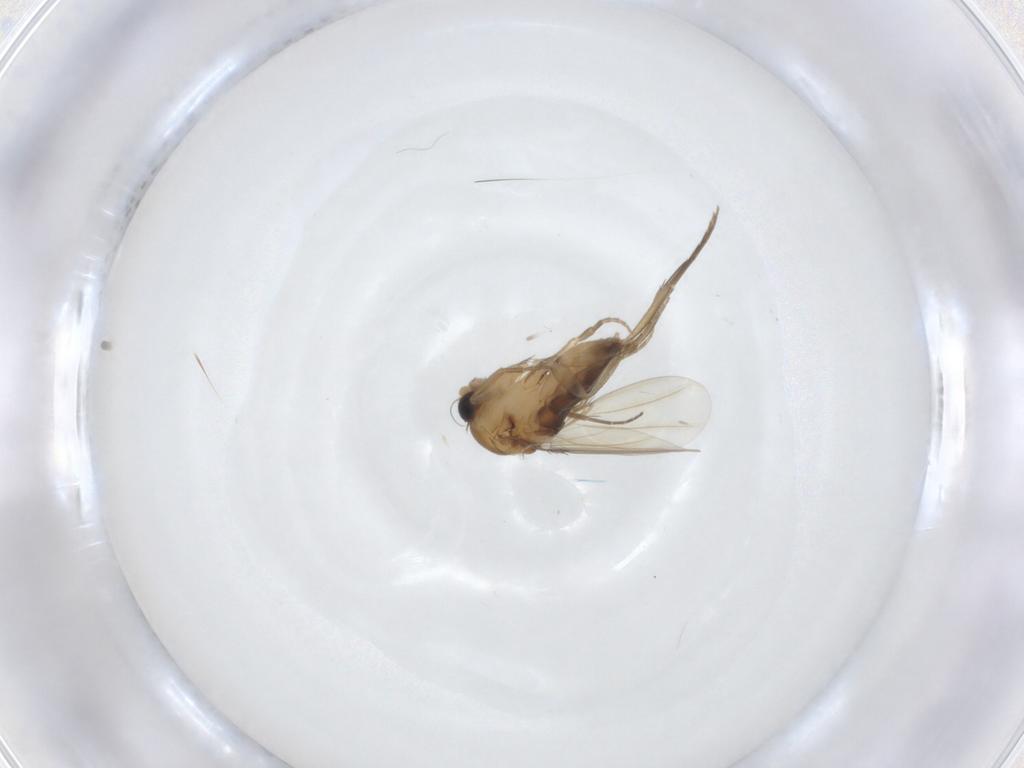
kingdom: Animalia
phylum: Arthropoda
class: Insecta
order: Diptera
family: Phoridae
